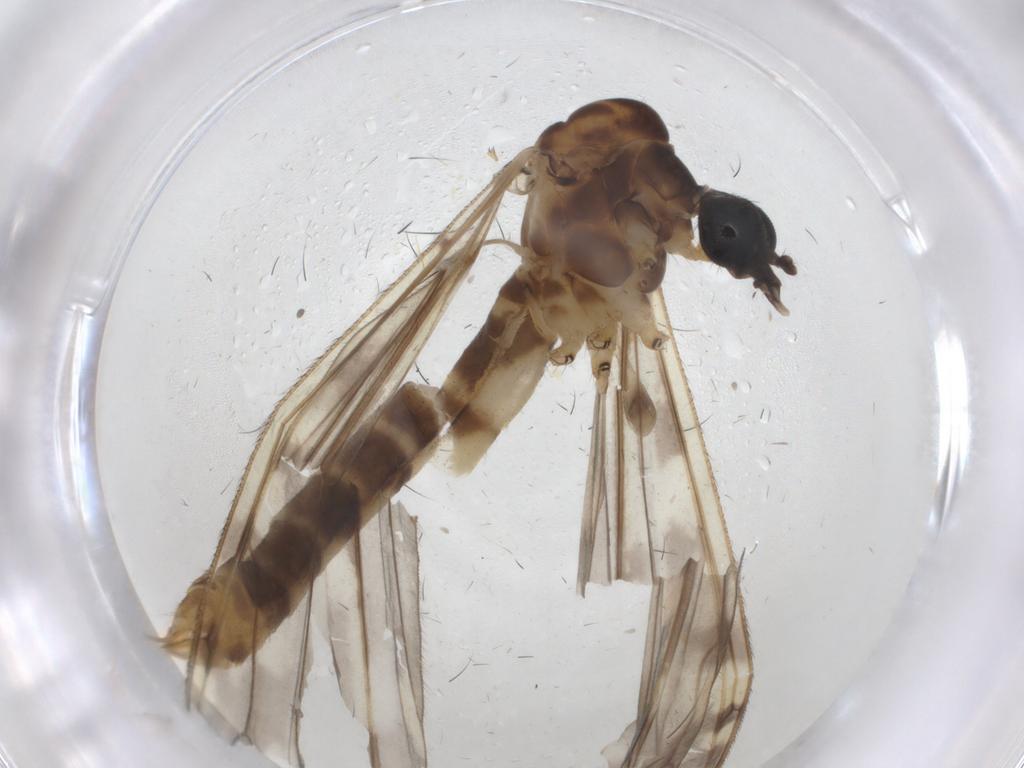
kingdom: Animalia
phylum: Arthropoda
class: Insecta
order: Diptera
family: Limoniidae
